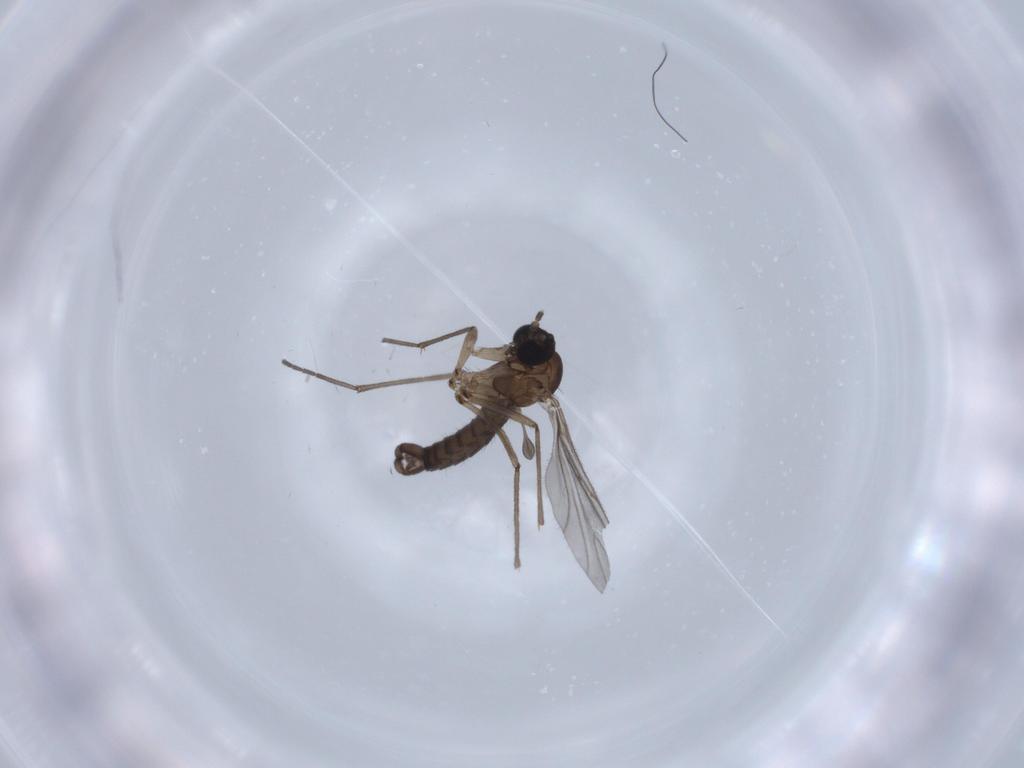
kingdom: Animalia
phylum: Arthropoda
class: Insecta
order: Diptera
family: Sciaridae
